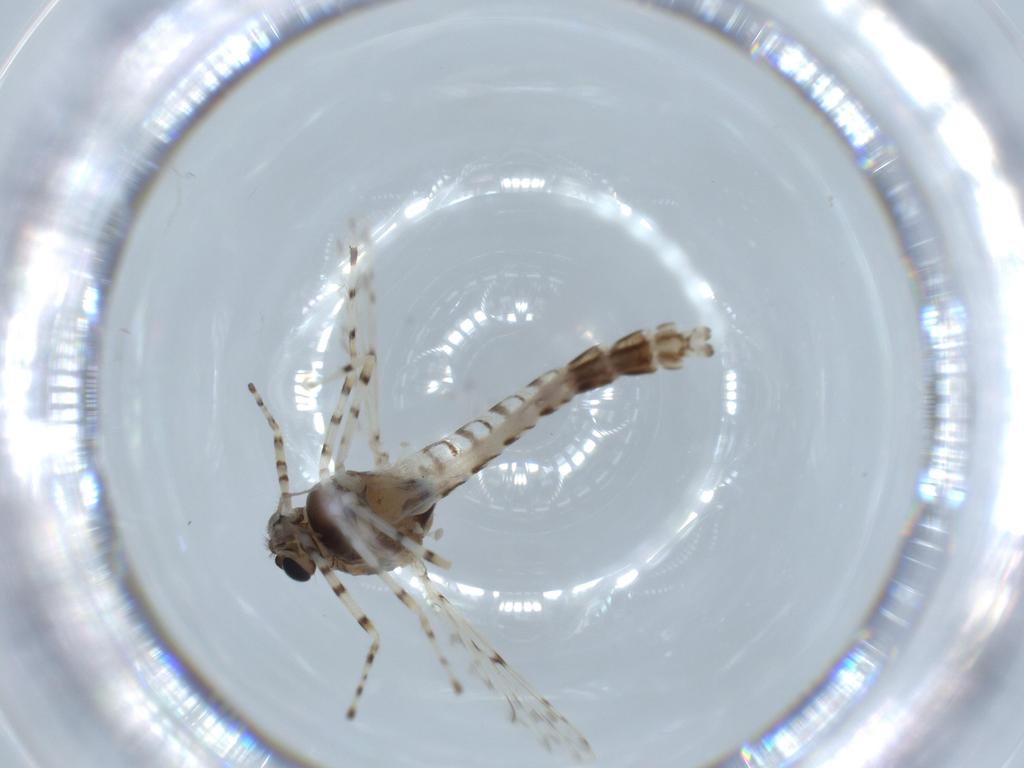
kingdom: Animalia
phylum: Arthropoda
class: Insecta
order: Diptera
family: Chironomidae
